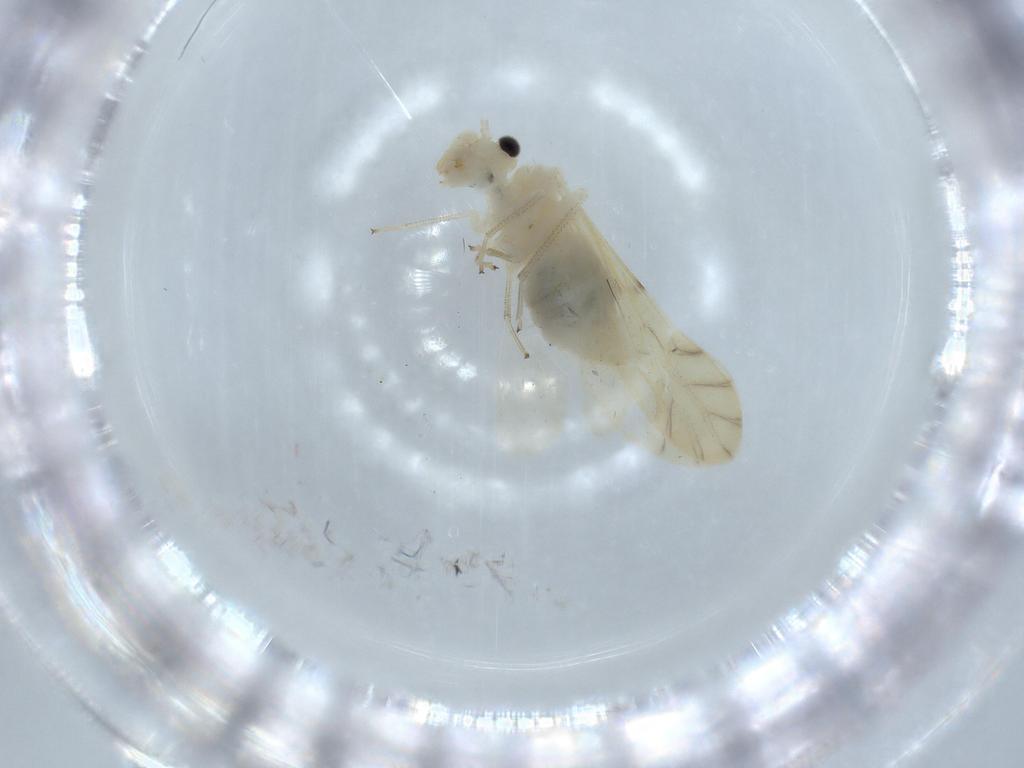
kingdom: Animalia
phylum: Arthropoda
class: Insecta
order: Psocodea
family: Caeciliusidae
